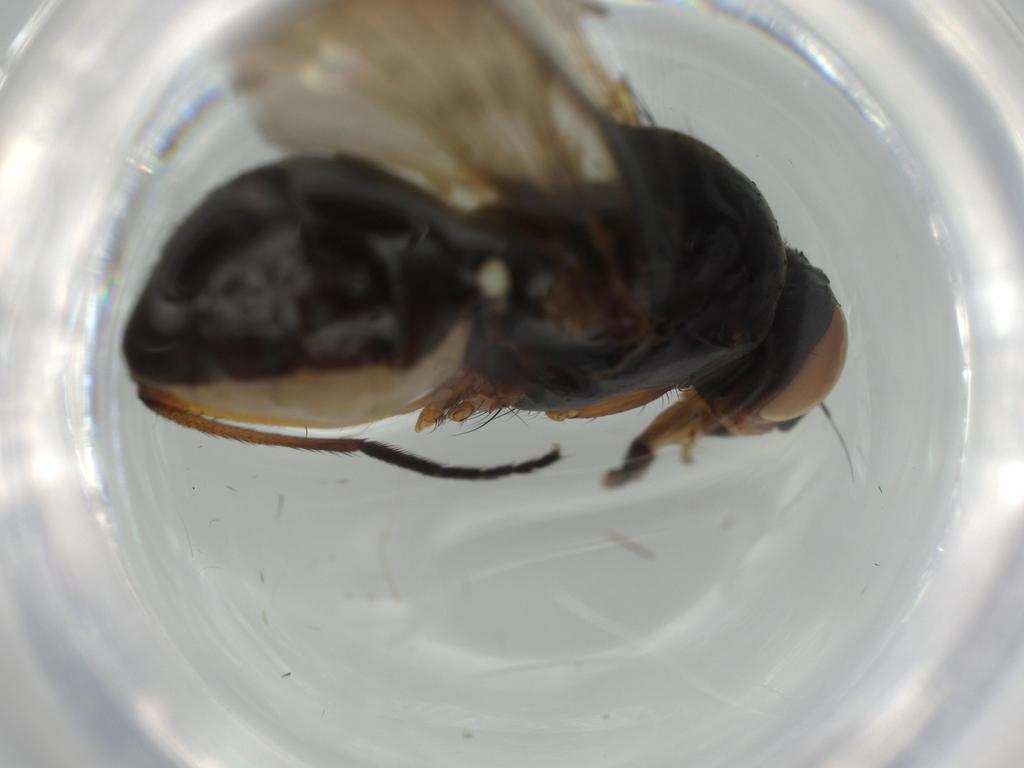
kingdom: Animalia
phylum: Arthropoda
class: Insecta
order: Diptera
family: Anthomyiidae
